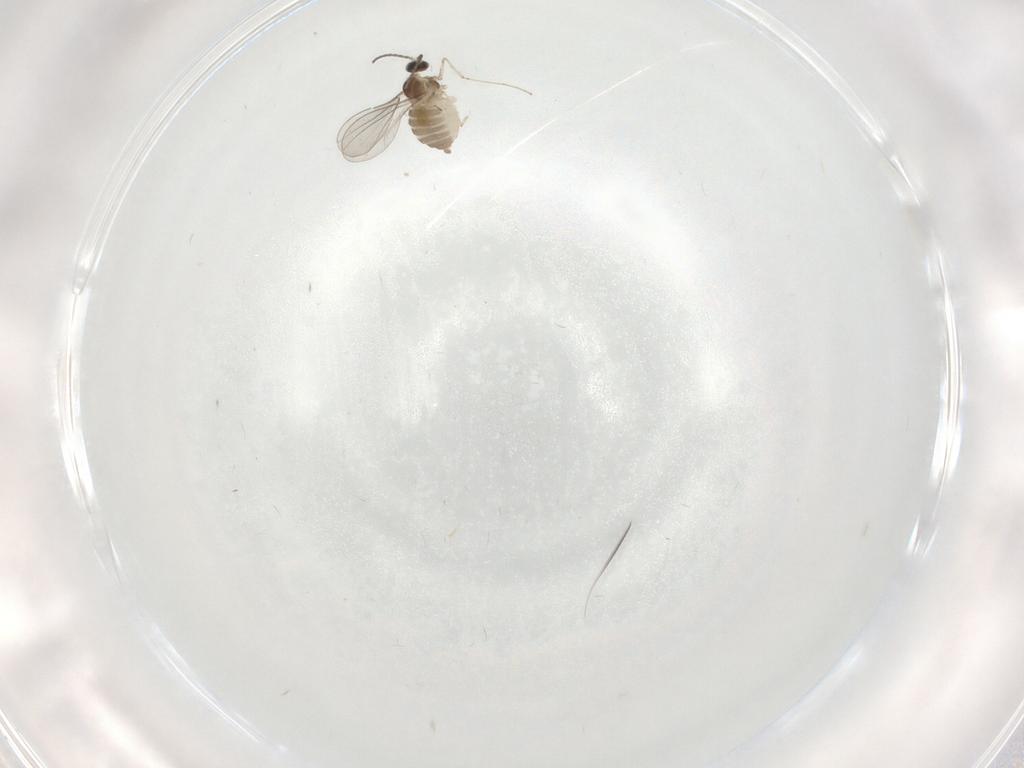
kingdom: Animalia
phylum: Arthropoda
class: Insecta
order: Diptera
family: Cecidomyiidae
